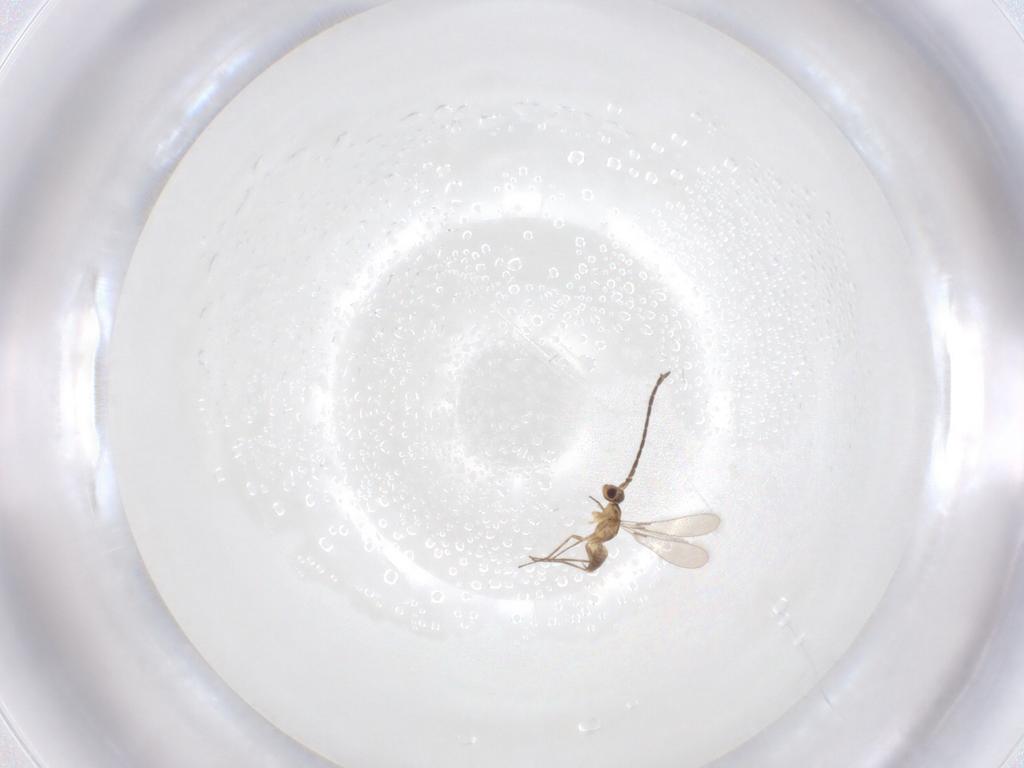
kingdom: Animalia
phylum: Arthropoda
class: Insecta
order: Hymenoptera
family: Mymaridae
